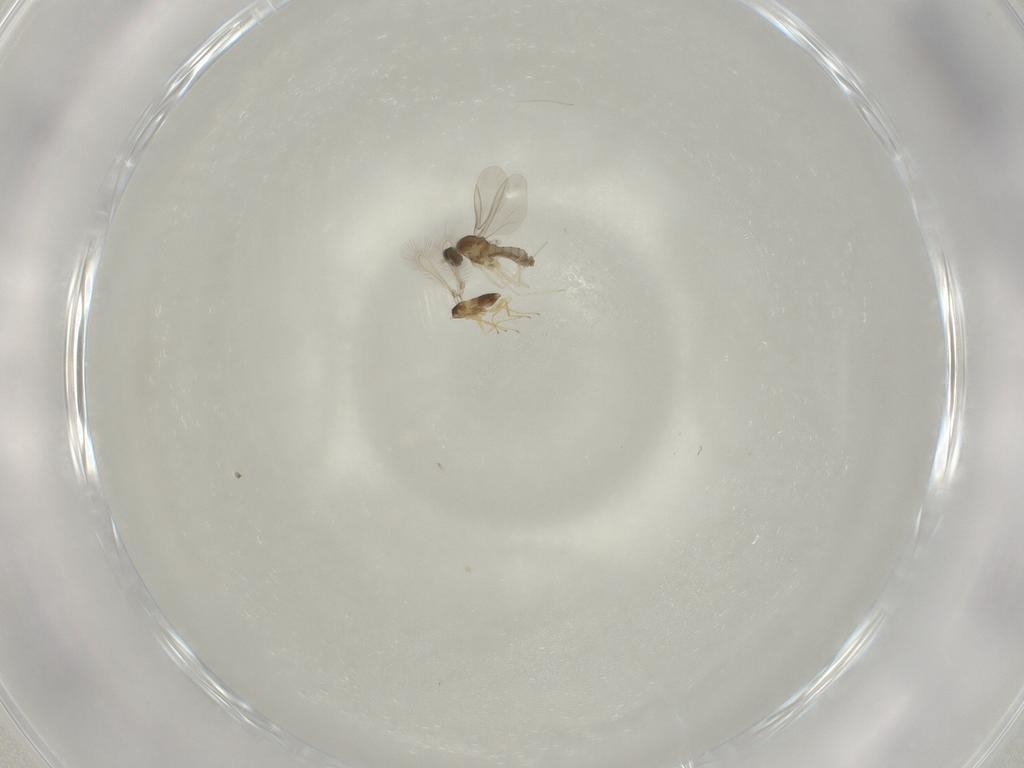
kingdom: Animalia
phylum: Arthropoda
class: Insecta
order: Diptera
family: Cecidomyiidae
